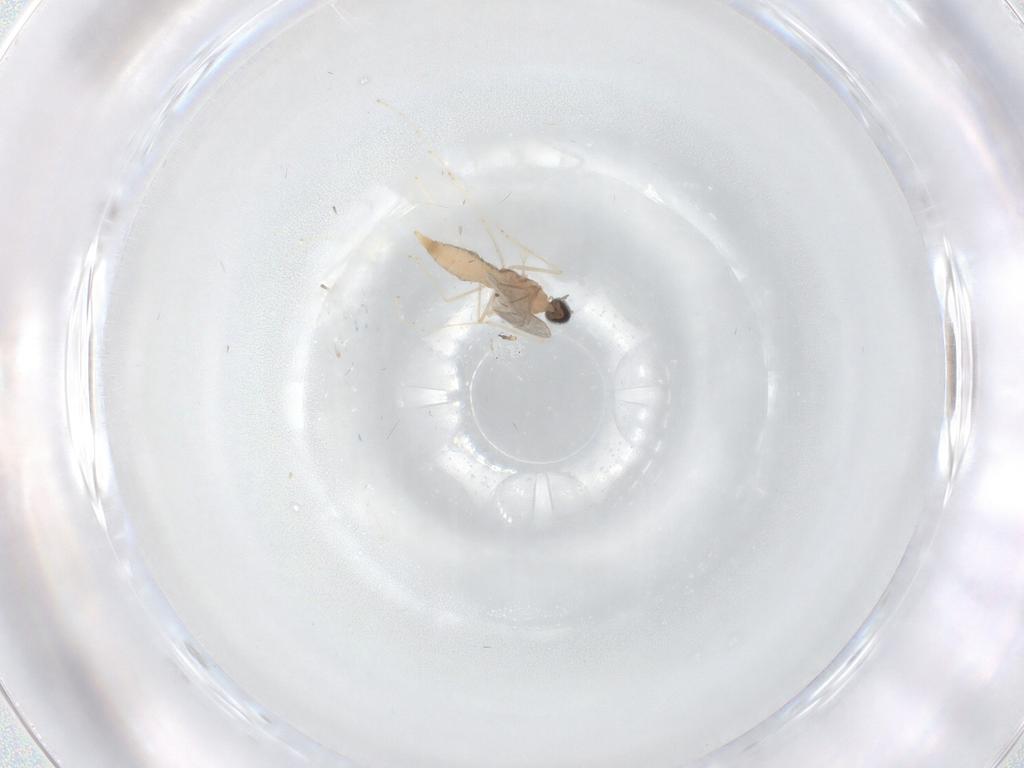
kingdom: Animalia
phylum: Arthropoda
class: Insecta
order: Diptera
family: Cecidomyiidae
